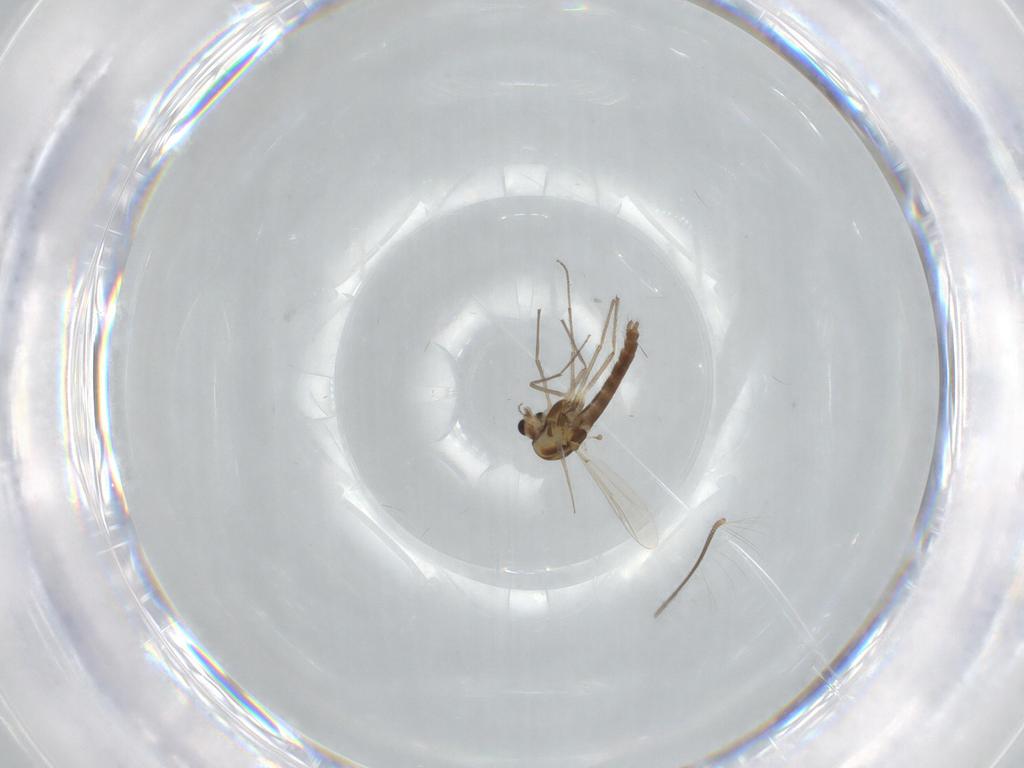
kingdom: Animalia
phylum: Arthropoda
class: Insecta
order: Diptera
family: Chironomidae
